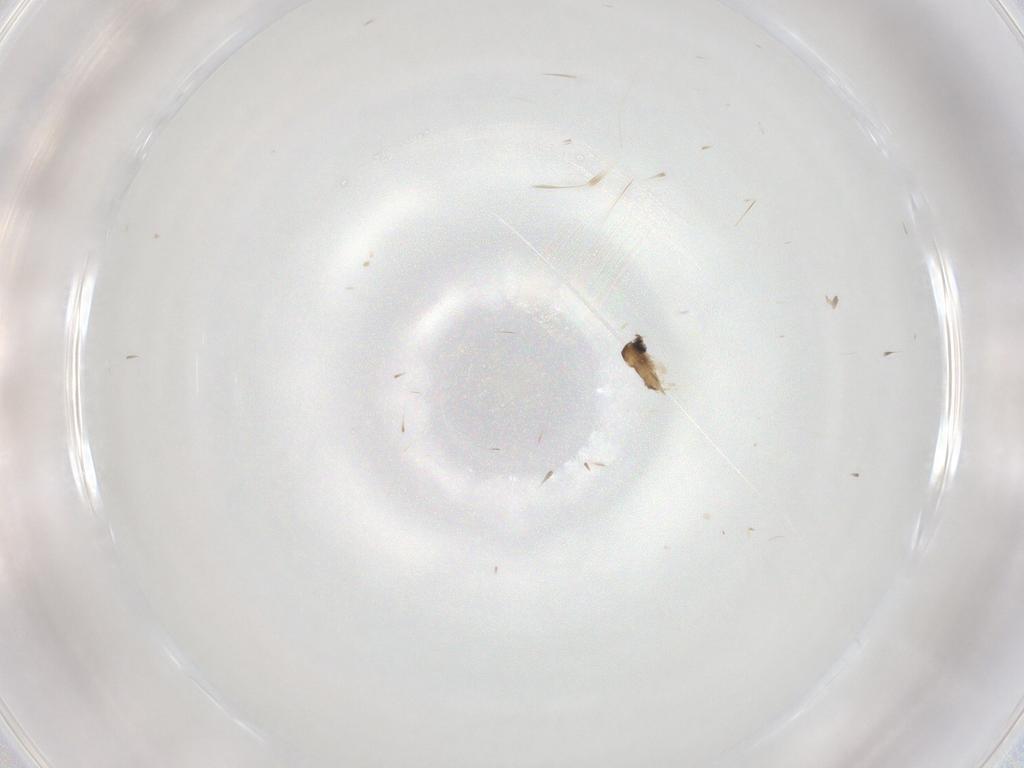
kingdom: Animalia
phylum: Arthropoda
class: Insecta
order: Diptera
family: Cecidomyiidae
